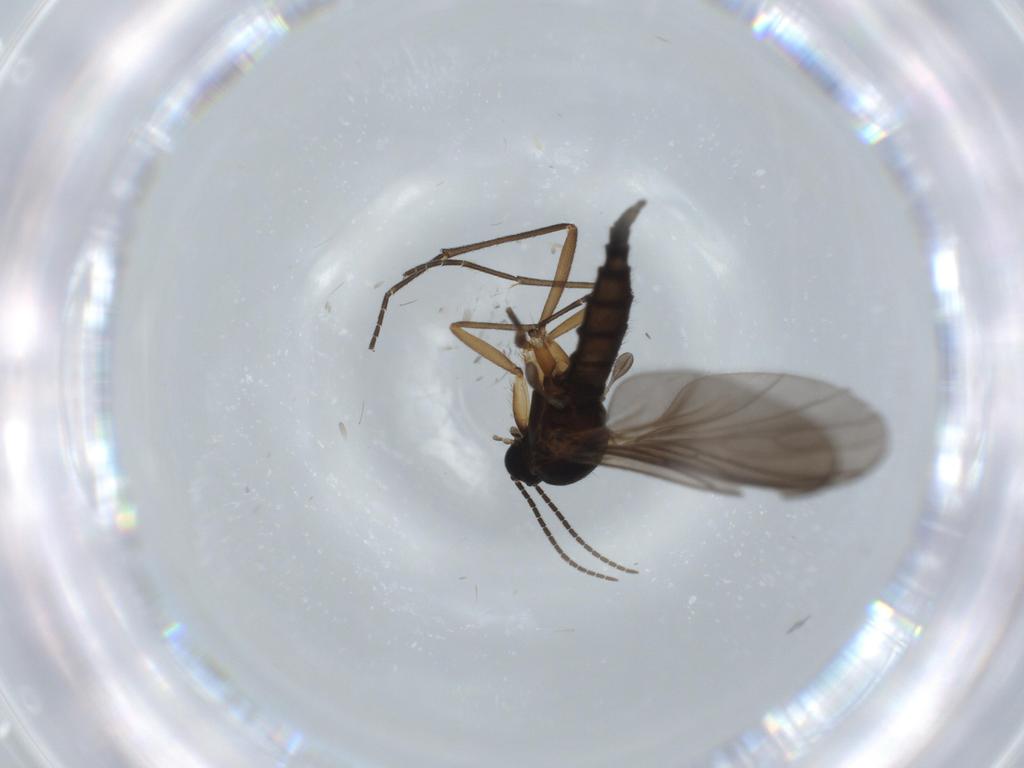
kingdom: Animalia
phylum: Arthropoda
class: Insecta
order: Diptera
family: Sciaridae
